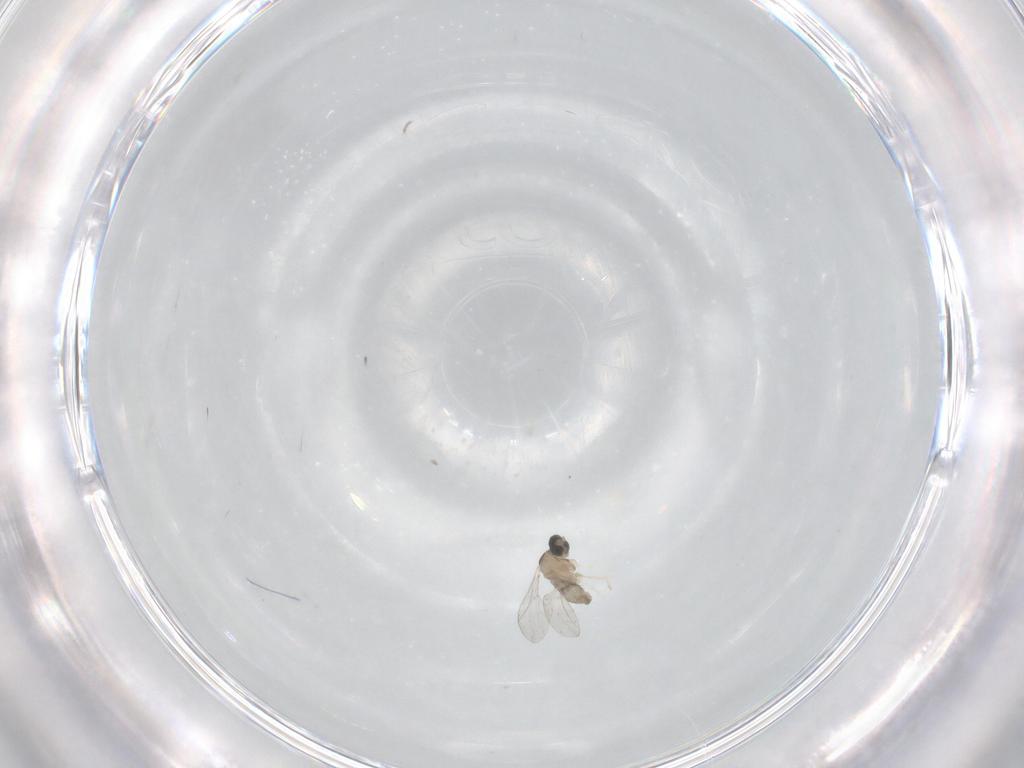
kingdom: Animalia
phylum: Arthropoda
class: Insecta
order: Diptera
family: Cecidomyiidae
